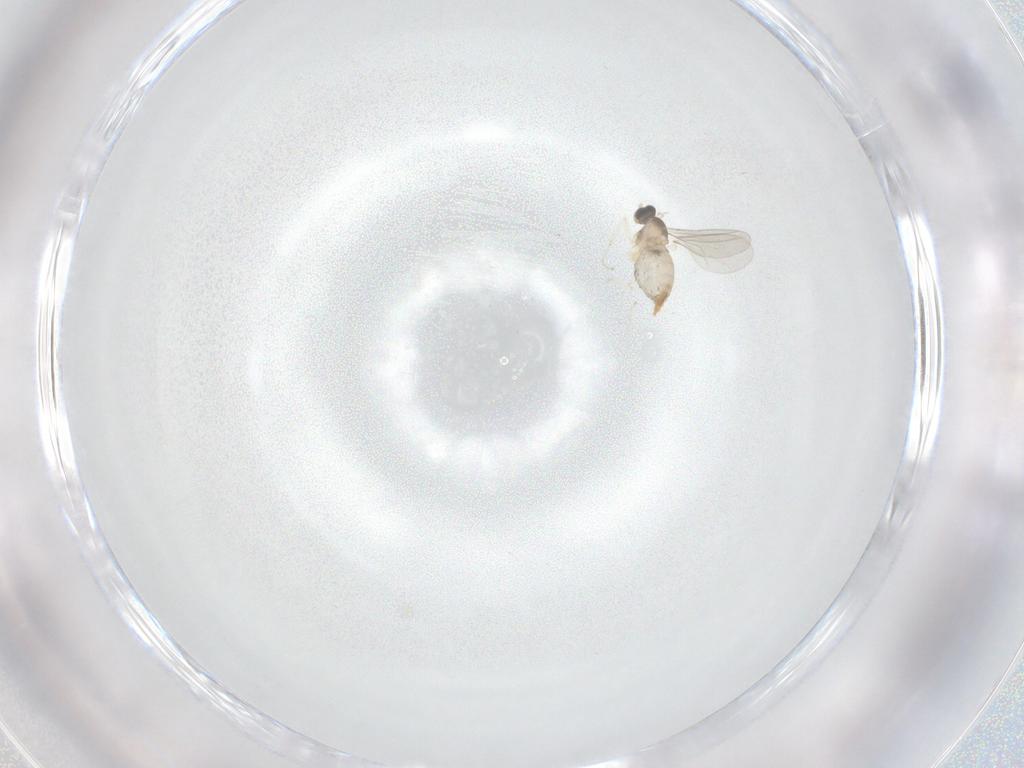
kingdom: Animalia
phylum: Arthropoda
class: Insecta
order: Diptera
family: Cecidomyiidae
